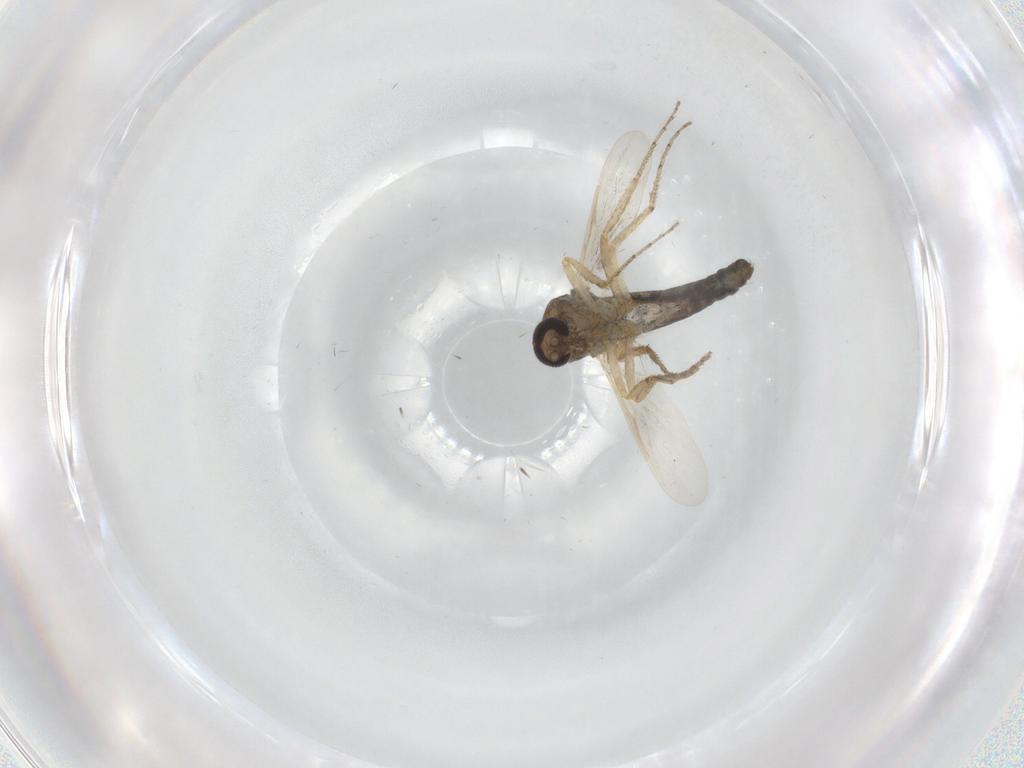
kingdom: Animalia
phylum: Arthropoda
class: Insecta
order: Diptera
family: Ceratopogonidae
